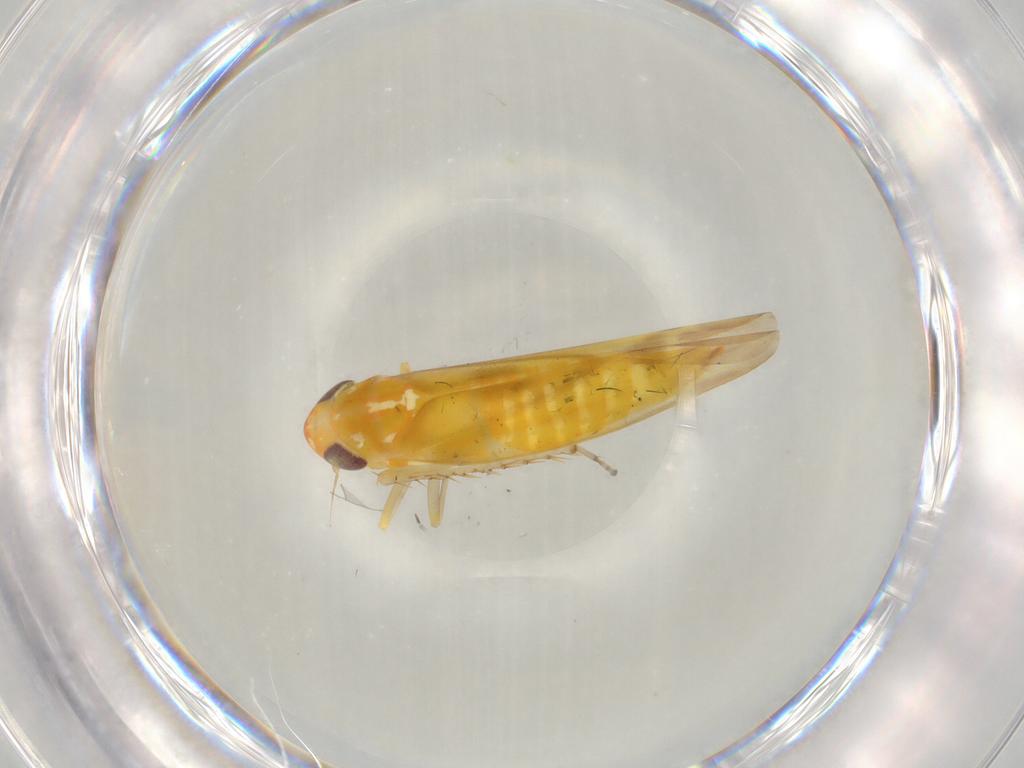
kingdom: Animalia
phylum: Arthropoda
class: Insecta
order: Hemiptera
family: Cicadellidae
